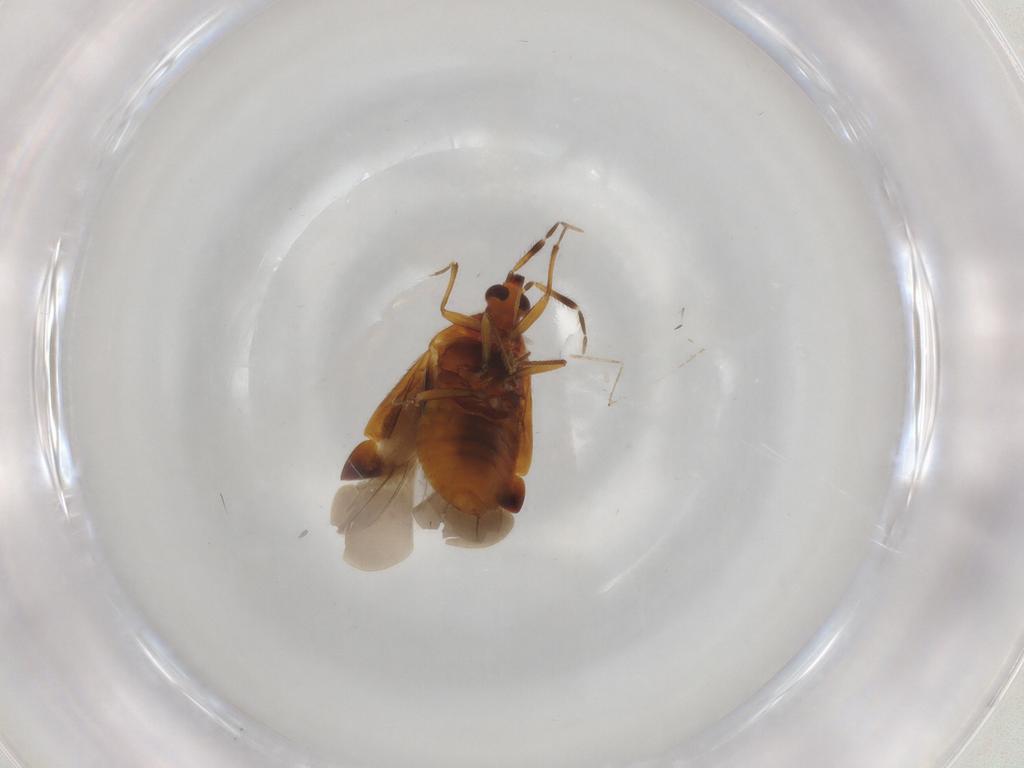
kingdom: Animalia
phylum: Arthropoda
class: Insecta
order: Hemiptera
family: Anthocoridae
